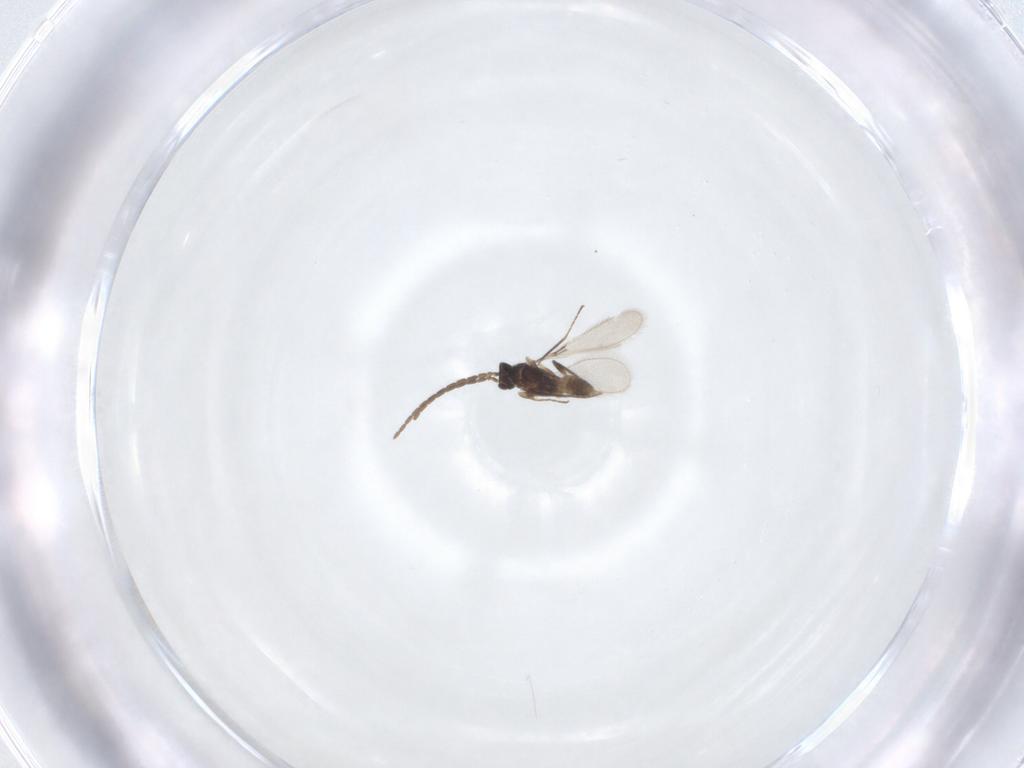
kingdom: Animalia
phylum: Arthropoda
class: Insecta
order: Hymenoptera
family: Mymaridae
